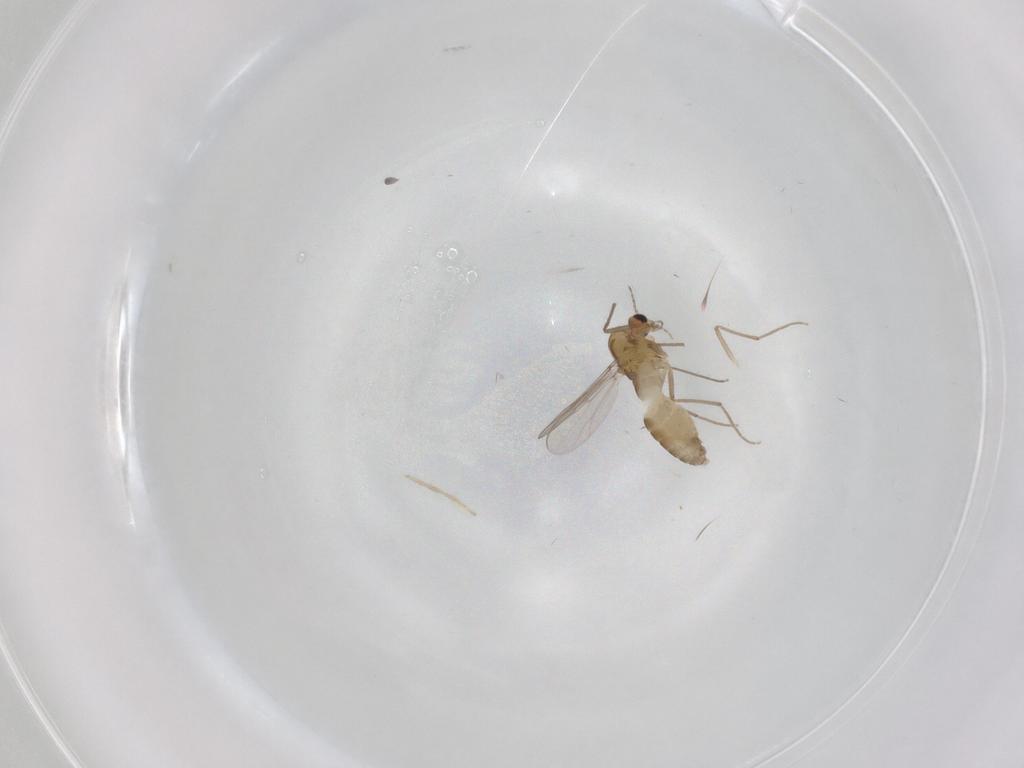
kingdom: Animalia
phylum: Arthropoda
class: Insecta
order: Diptera
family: Chironomidae
